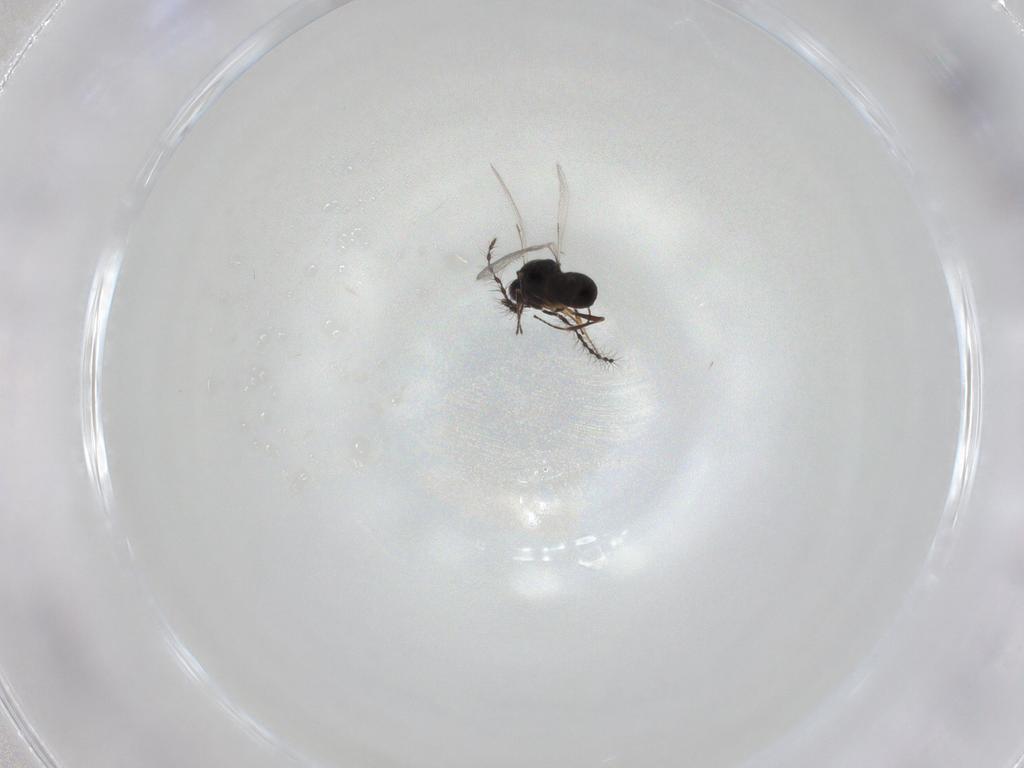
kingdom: Animalia
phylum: Arthropoda
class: Insecta
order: Hymenoptera
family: Scelionidae
